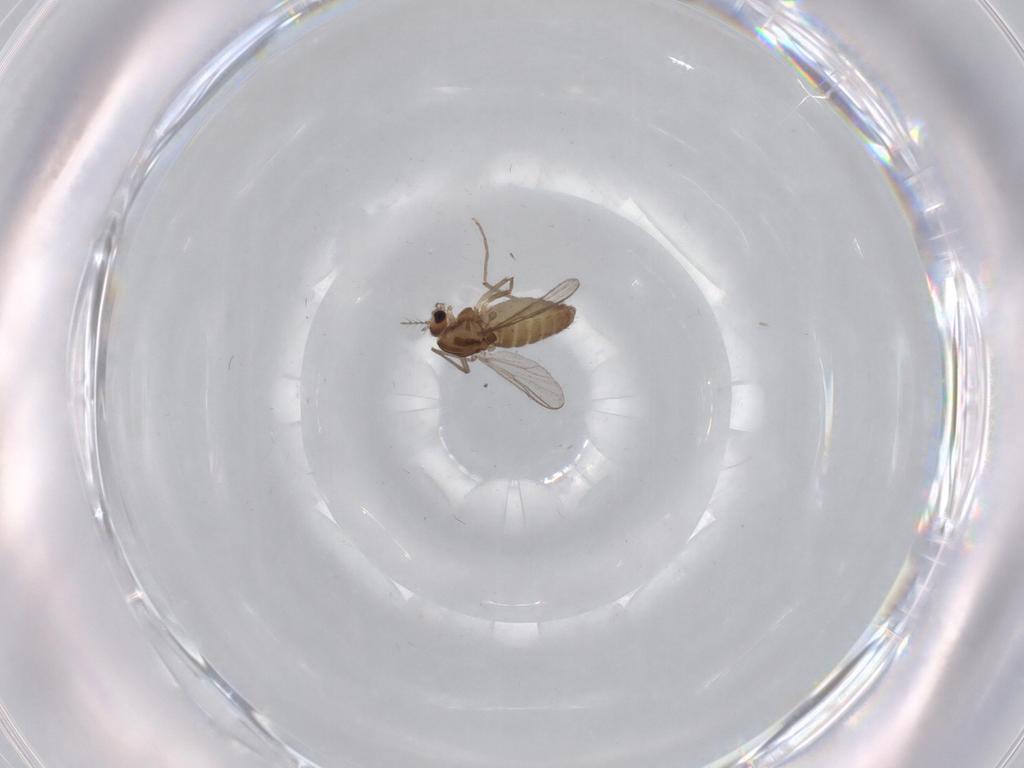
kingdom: Animalia
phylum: Arthropoda
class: Insecta
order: Diptera
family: Chironomidae
